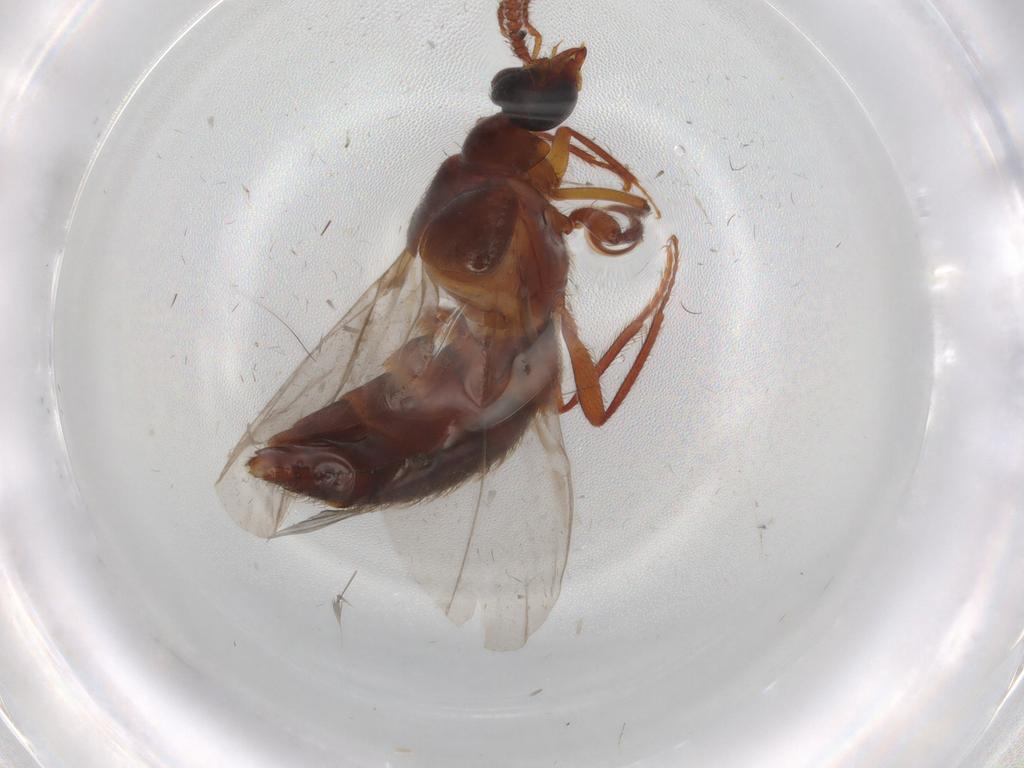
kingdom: Animalia
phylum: Arthropoda
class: Insecta
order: Coleoptera
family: Staphylinidae
